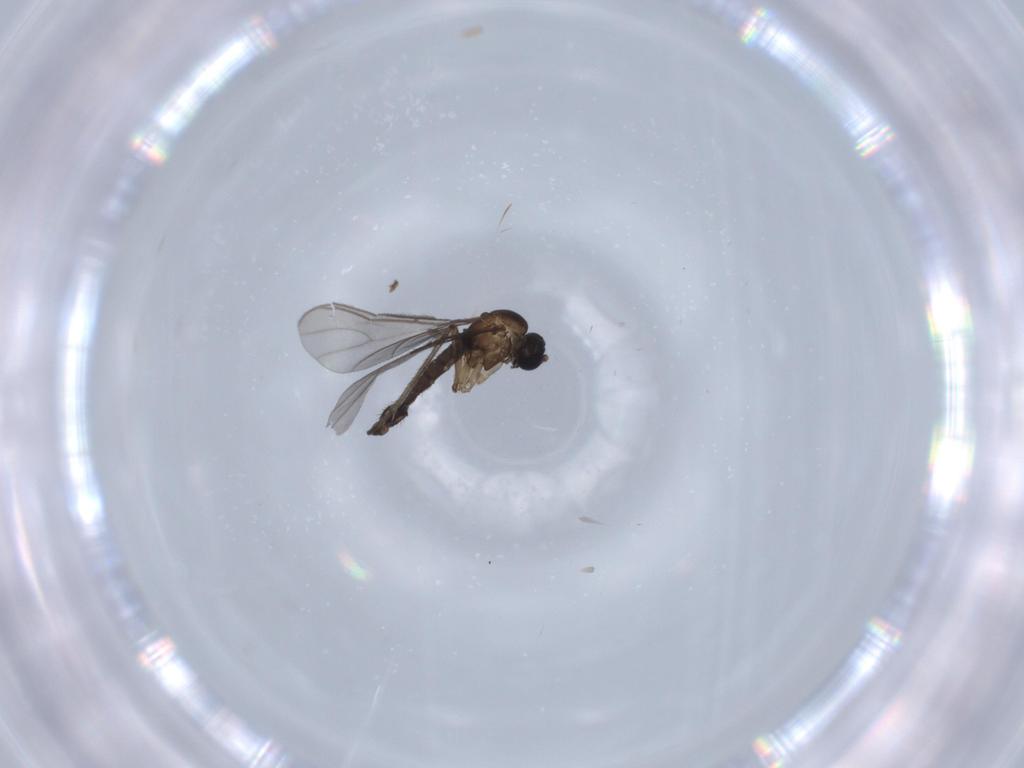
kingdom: Animalia
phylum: Arthropoda
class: Insecta
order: Diptera
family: Sciaridae
